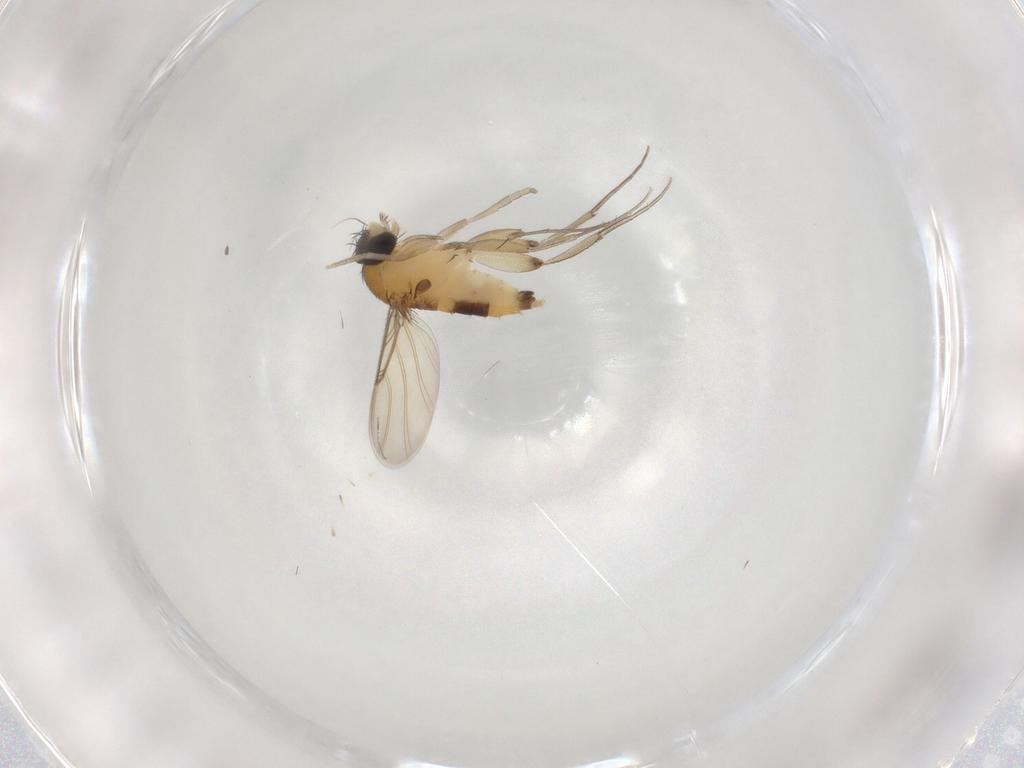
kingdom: Animalia
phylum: Arthropoda
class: Insecta
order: Diptera
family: Phoridae
